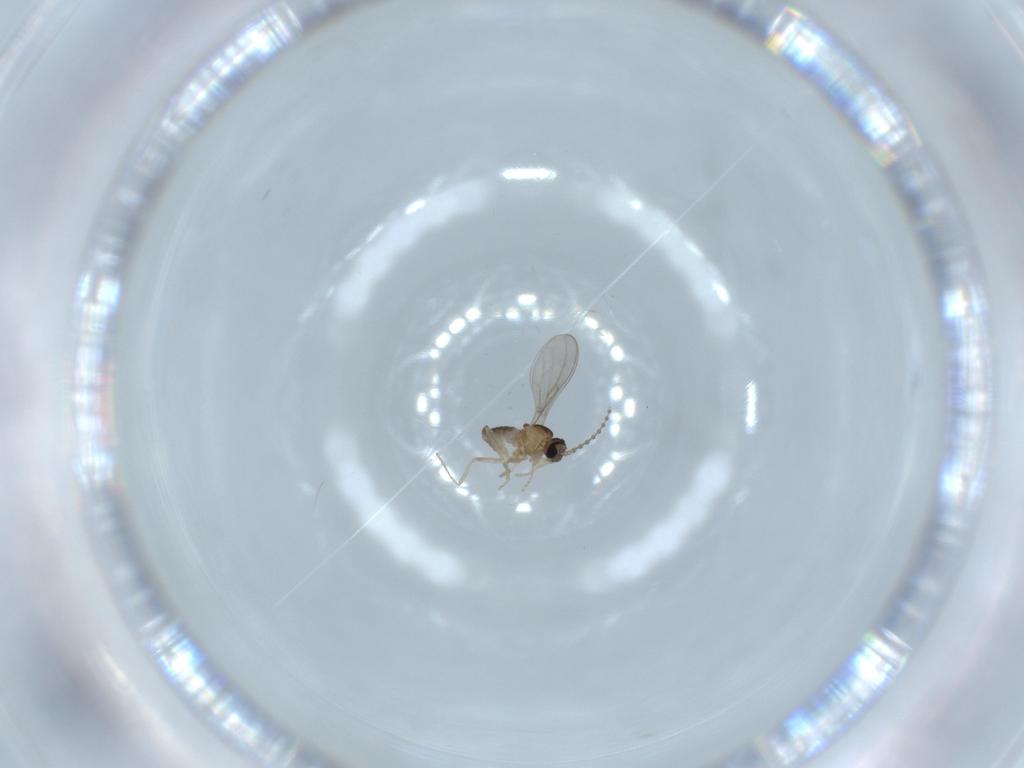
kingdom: Animalia
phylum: Arthropoda
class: Insecta
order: Diptera
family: Cecidomyiidae
